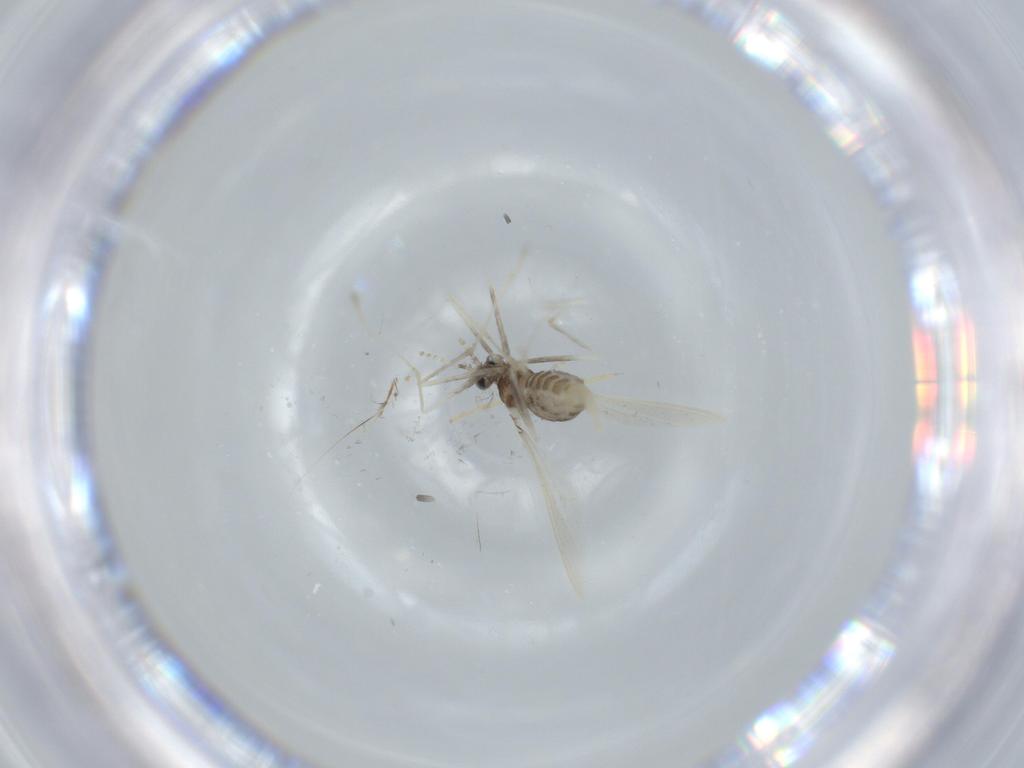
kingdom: Animalia
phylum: Arthropoda
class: Insecta
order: Diptera
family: Cecidomyiidae
